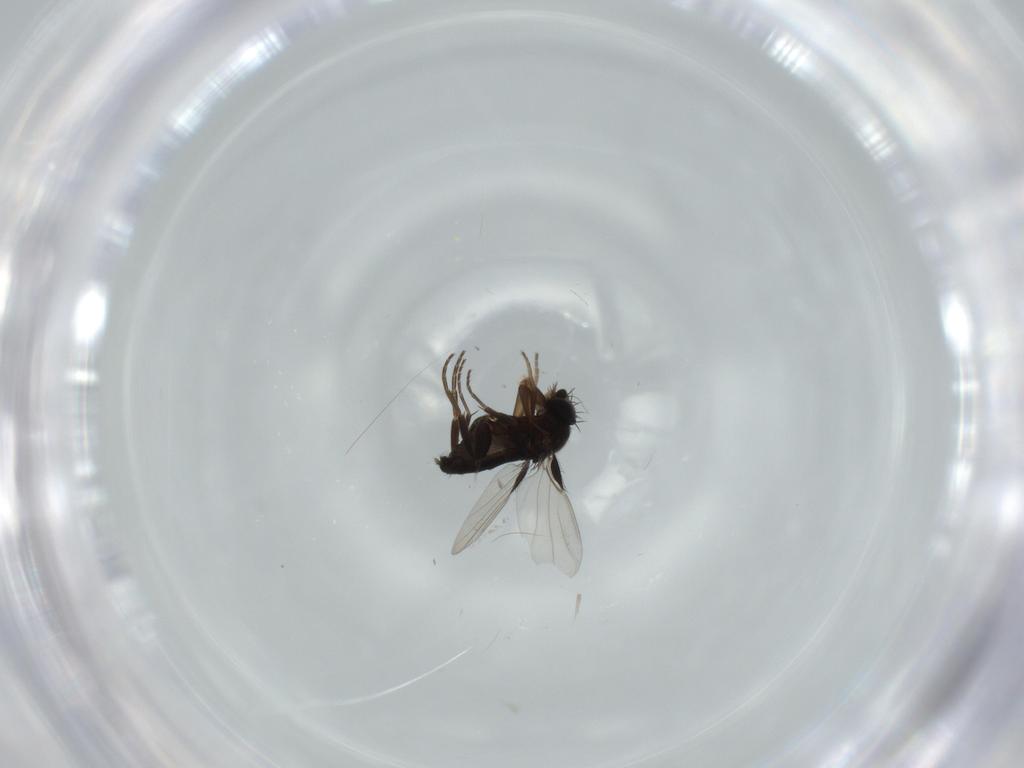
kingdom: Animalia
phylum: Arthropoda
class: Insecta
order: Diptera
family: Phoridae
